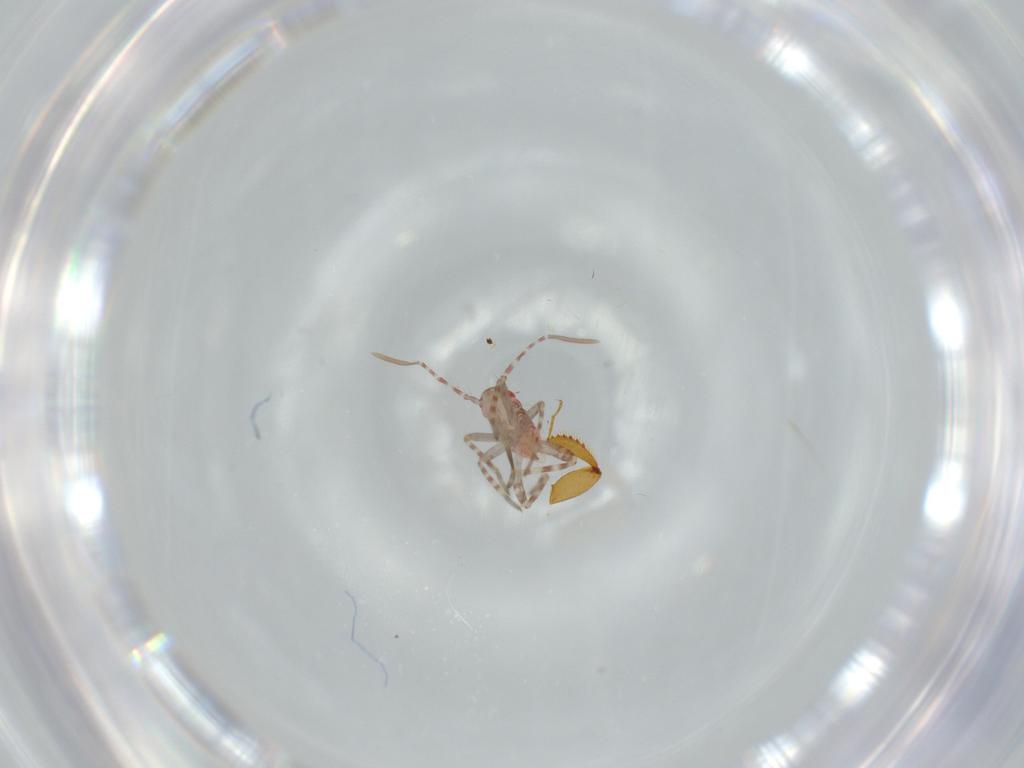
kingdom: Animalia
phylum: Arthropoda
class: Insecta
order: Hemiptera
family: Miridae
